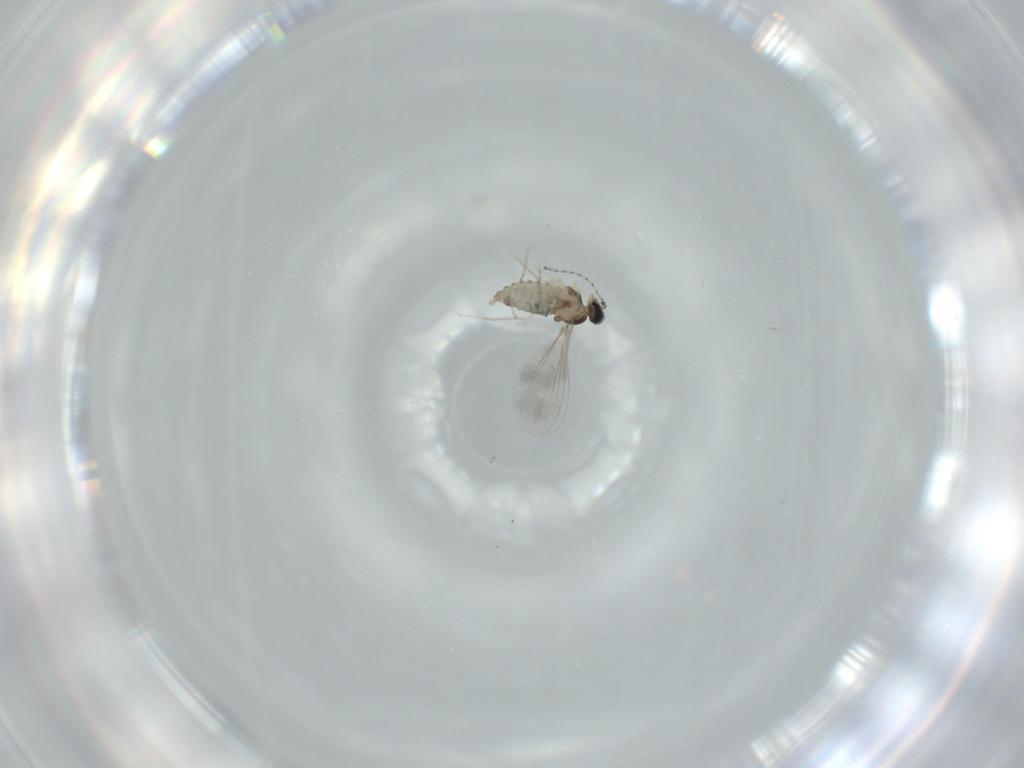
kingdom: Animalia
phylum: Arthropoda
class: Insecta
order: Diptera
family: Cecidomyiidae
